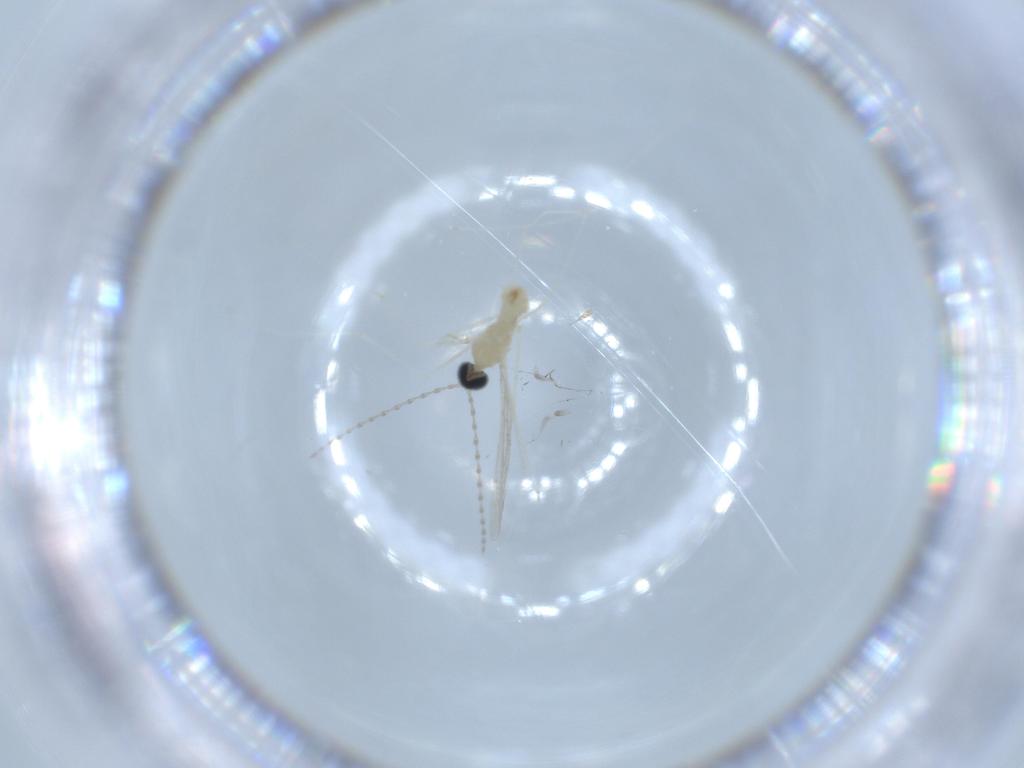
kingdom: Animalia
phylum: Arthropoda
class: Insecta
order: Diptera
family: Cecidomyiidae
